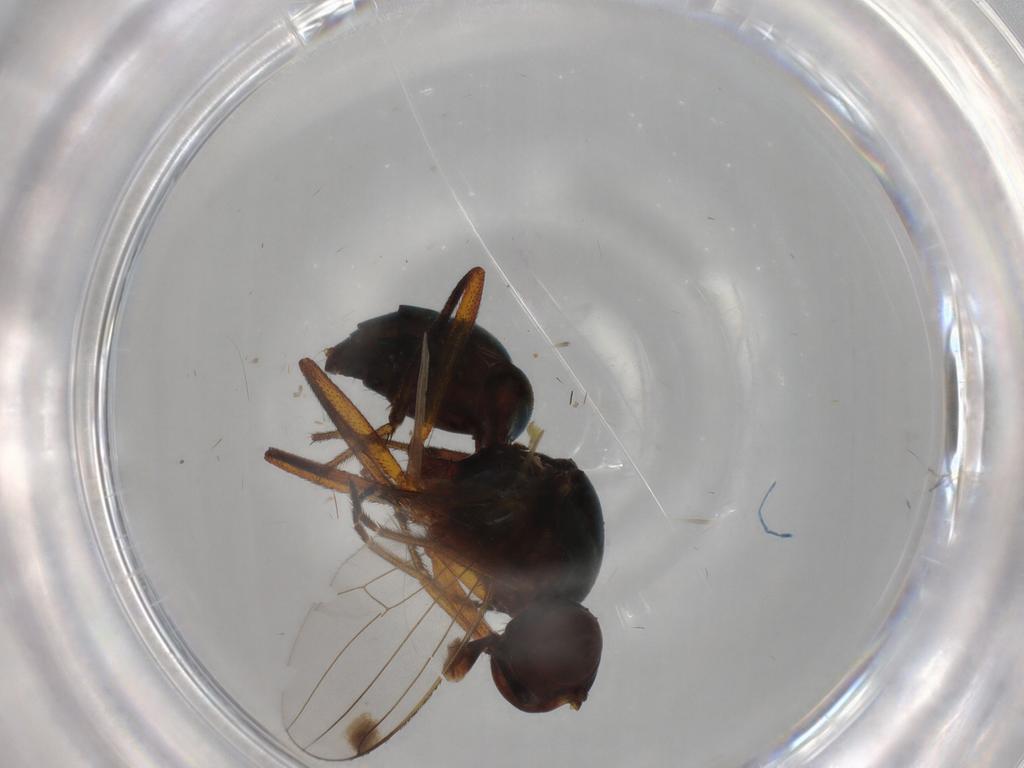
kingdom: Animalia
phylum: Arthropoda
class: Insecta
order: Diptera
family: Sepsidae
